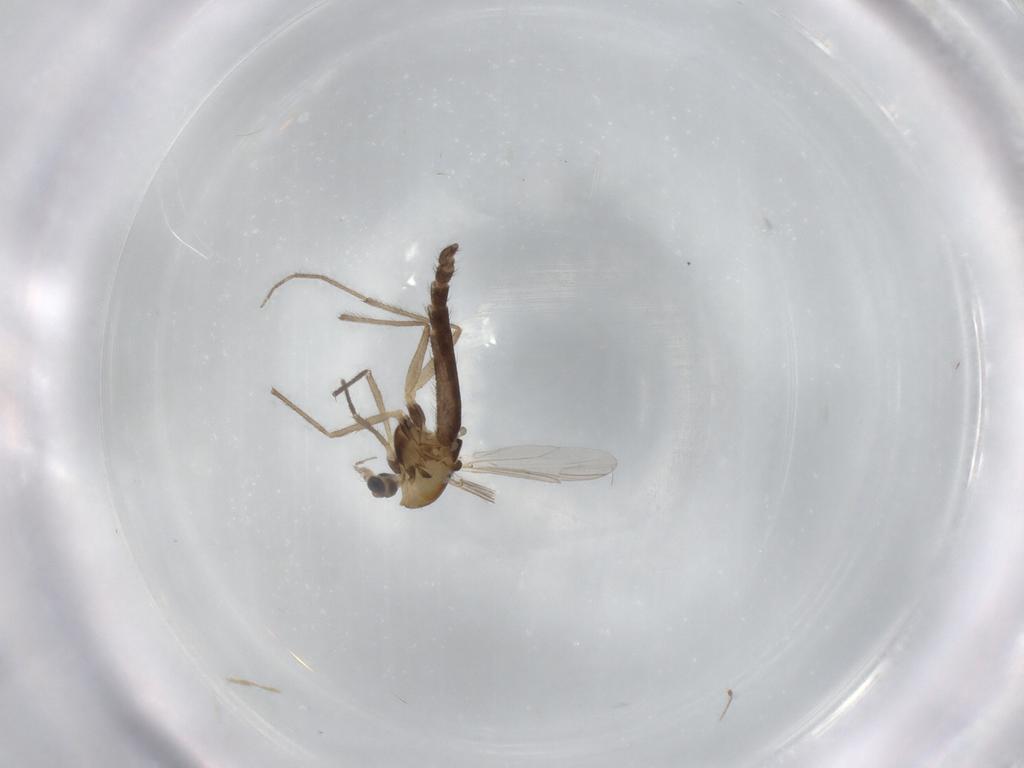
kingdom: Animalia
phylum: Arthropoda
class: Insecta
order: Diptera
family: Chironomidae
